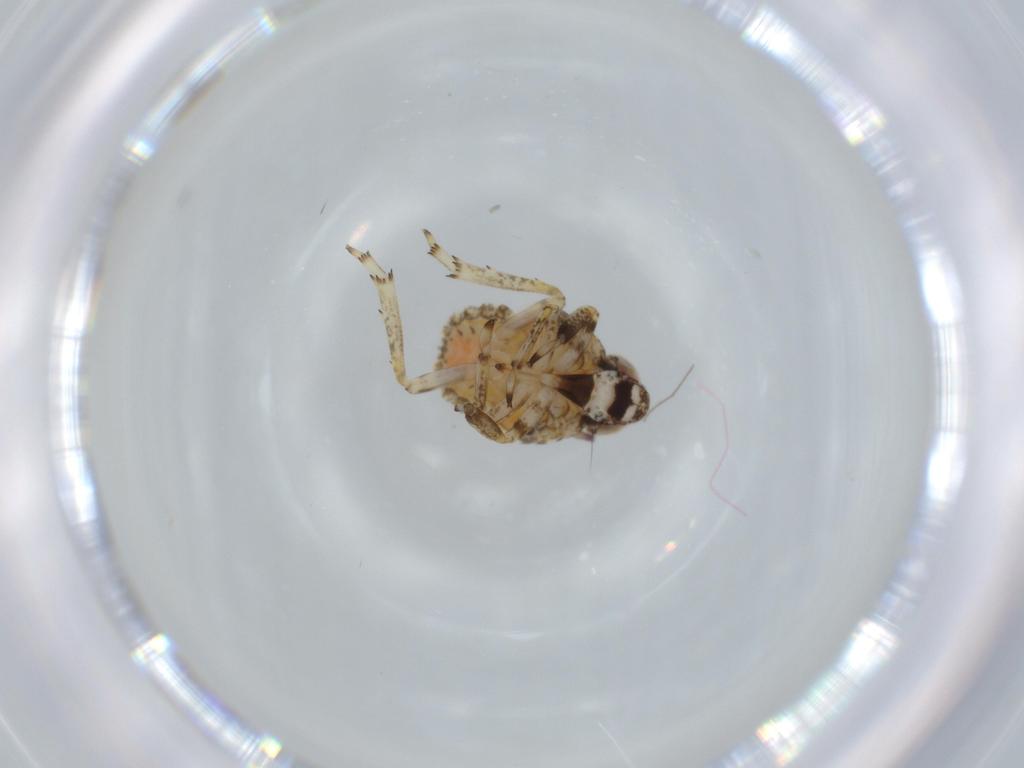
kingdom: Animalia
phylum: Arthropoda
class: Insecta
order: Hemiptera
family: Issidae
